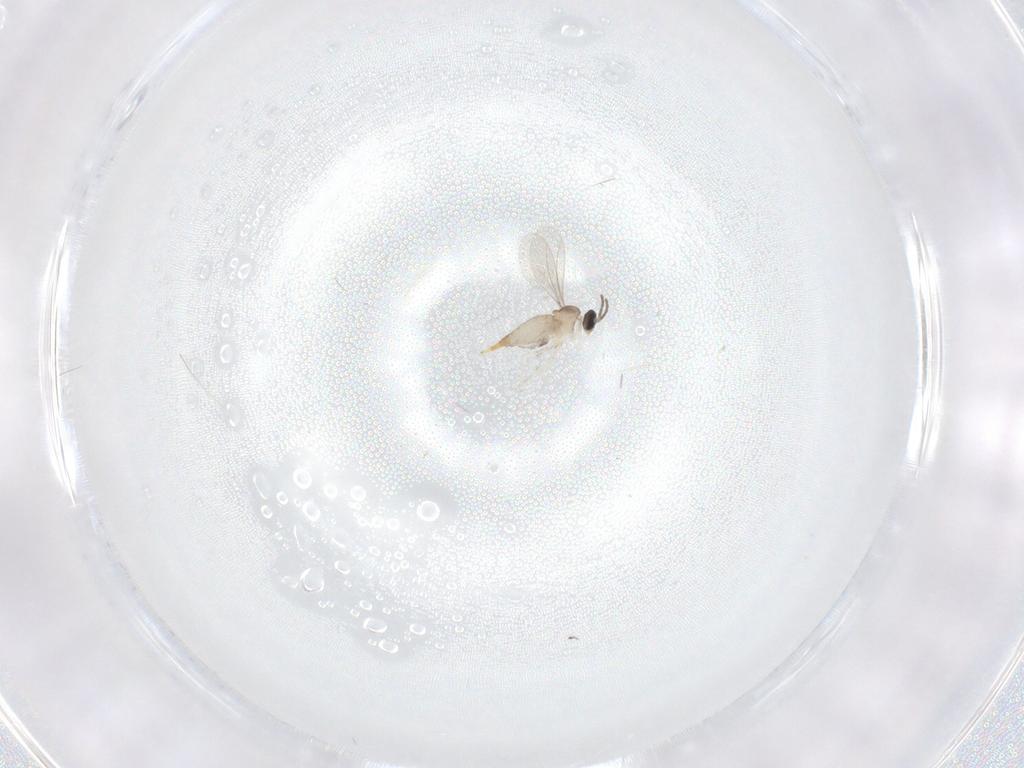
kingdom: Animalia
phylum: Arthropoda
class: Insecta
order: Diptera
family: Cecidomyiidae
